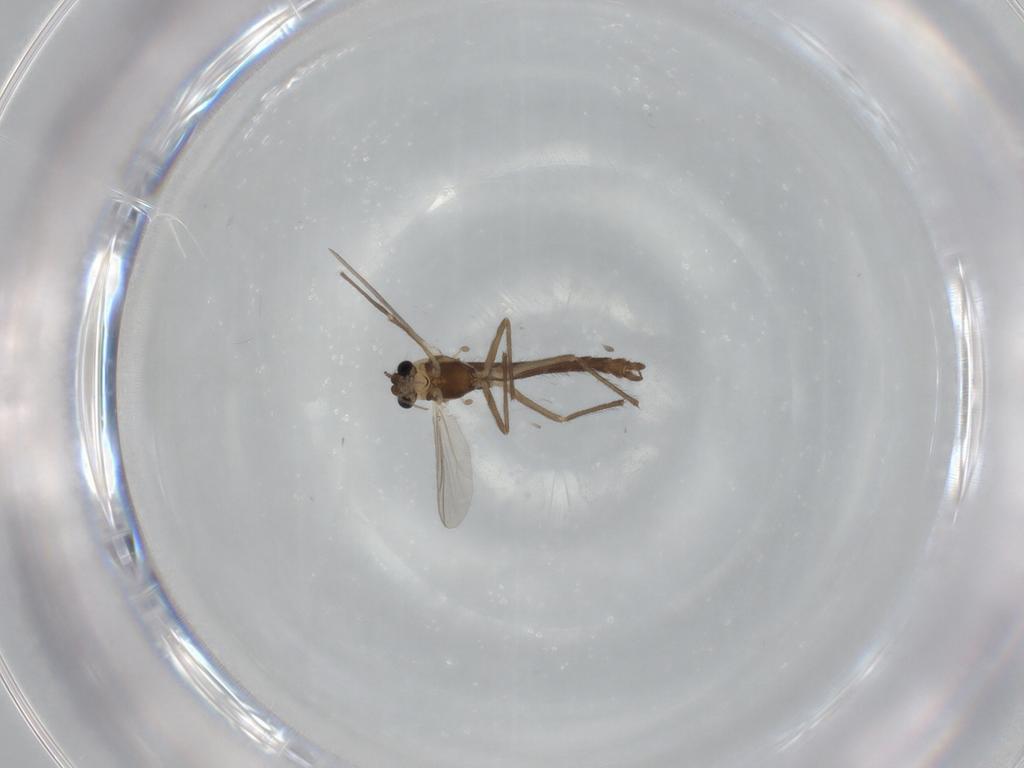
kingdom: Animalia
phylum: Arthropoda
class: Insecta
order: Diptera
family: Chironomidae
